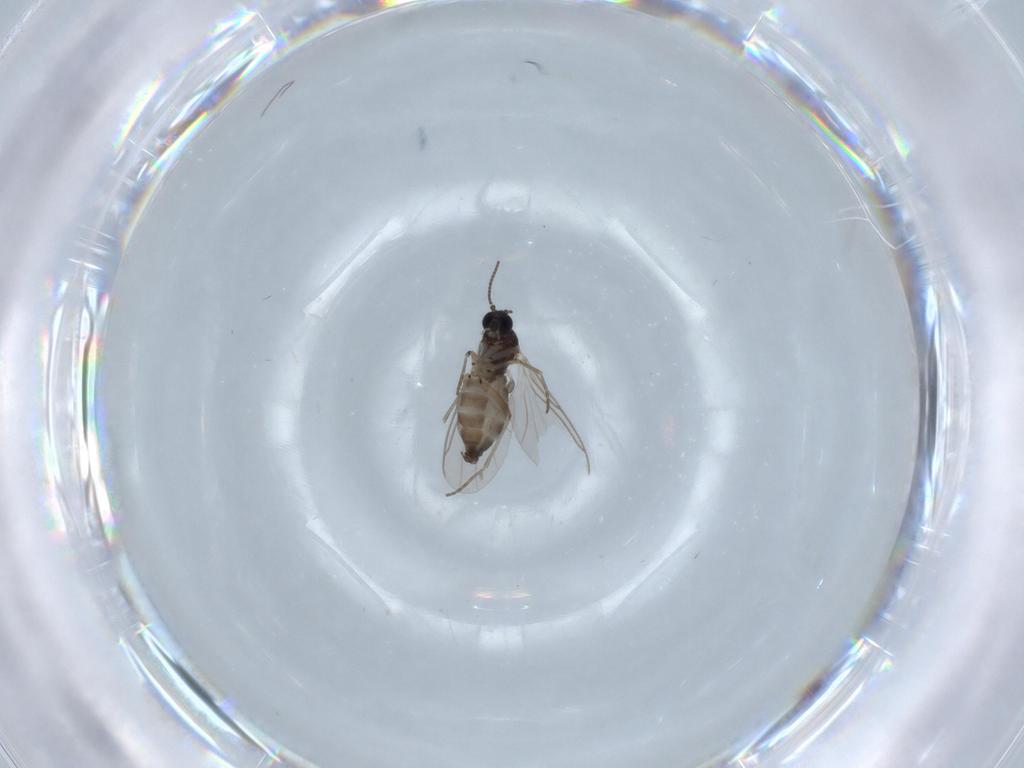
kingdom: Animalia
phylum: Arthropoda
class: Insecta
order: Diptera
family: Sciaridae
